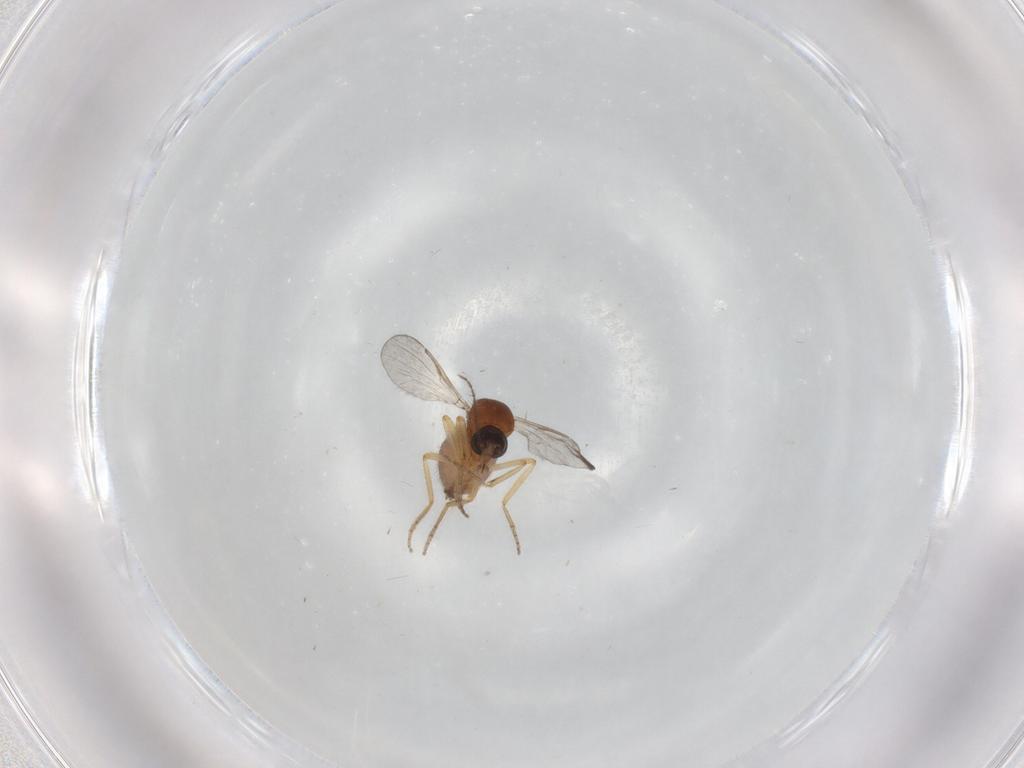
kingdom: Animalia
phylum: Arthropoda
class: Insecta
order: Diptera
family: Ceratopogonidae
